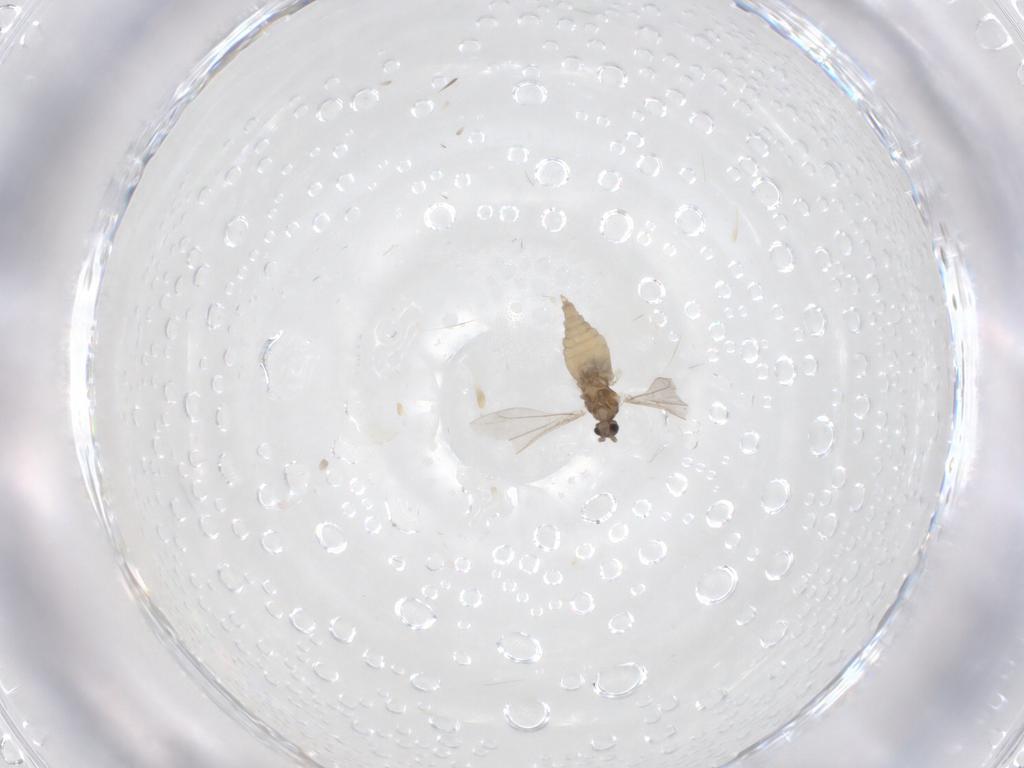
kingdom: Animalia
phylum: Arthropoda
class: Insecta
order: Diptera
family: Cecidomyiidae
